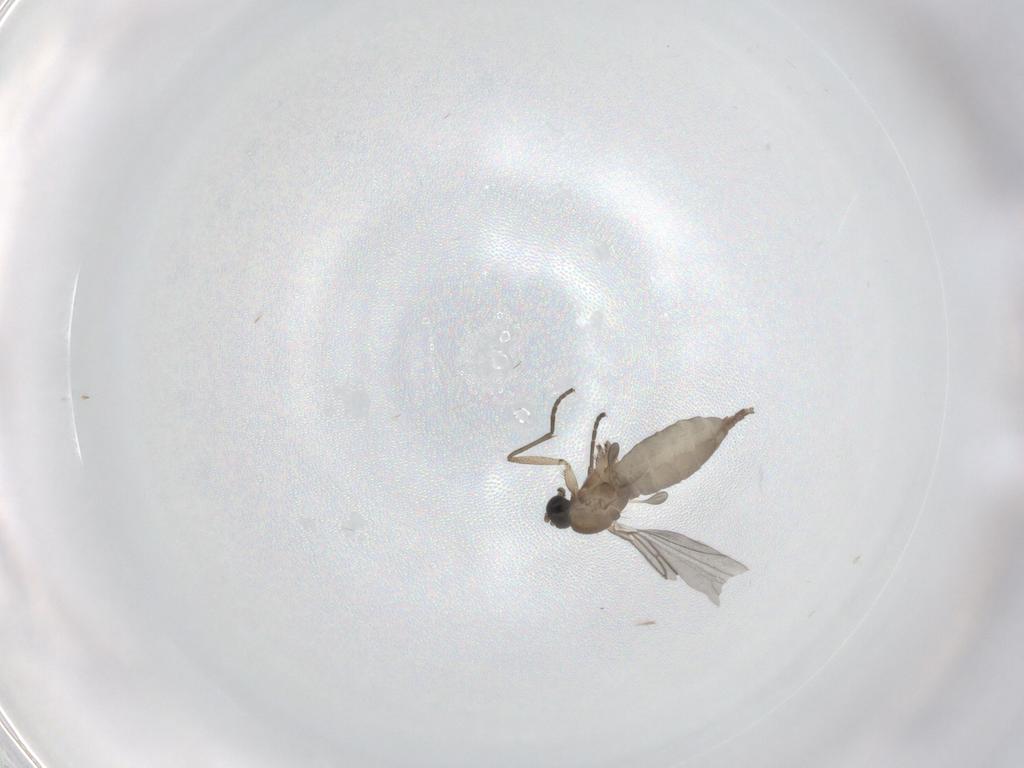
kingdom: Animalia
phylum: Arthropoda
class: Insecta
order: Diptera
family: Sciaridae
